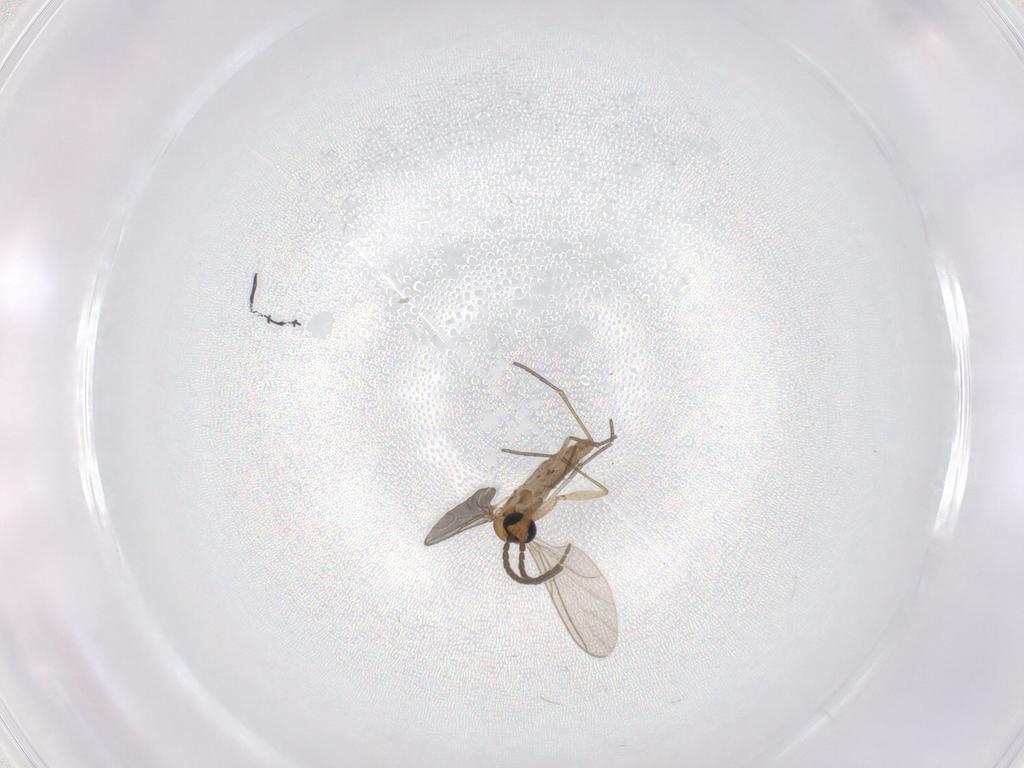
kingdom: Animalia
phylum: Arthropoda
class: Insecta
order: Diptera
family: Sciaridae
